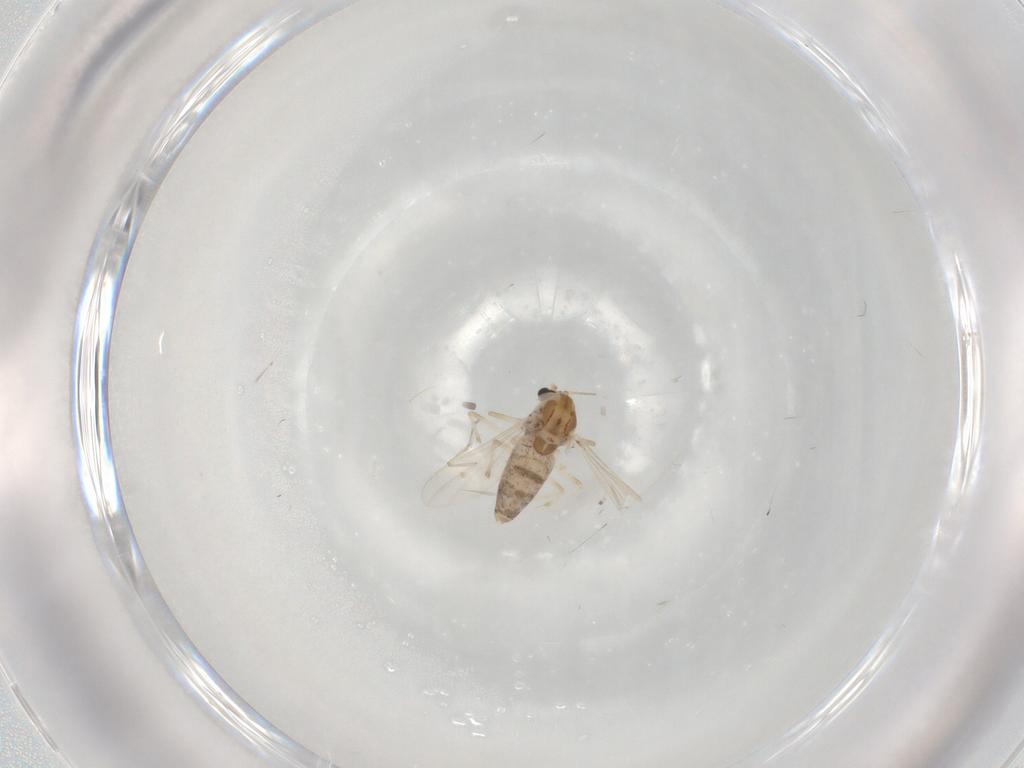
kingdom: Animalia
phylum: Arthropoda
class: Insecta
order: Diptera
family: Chironomidae
